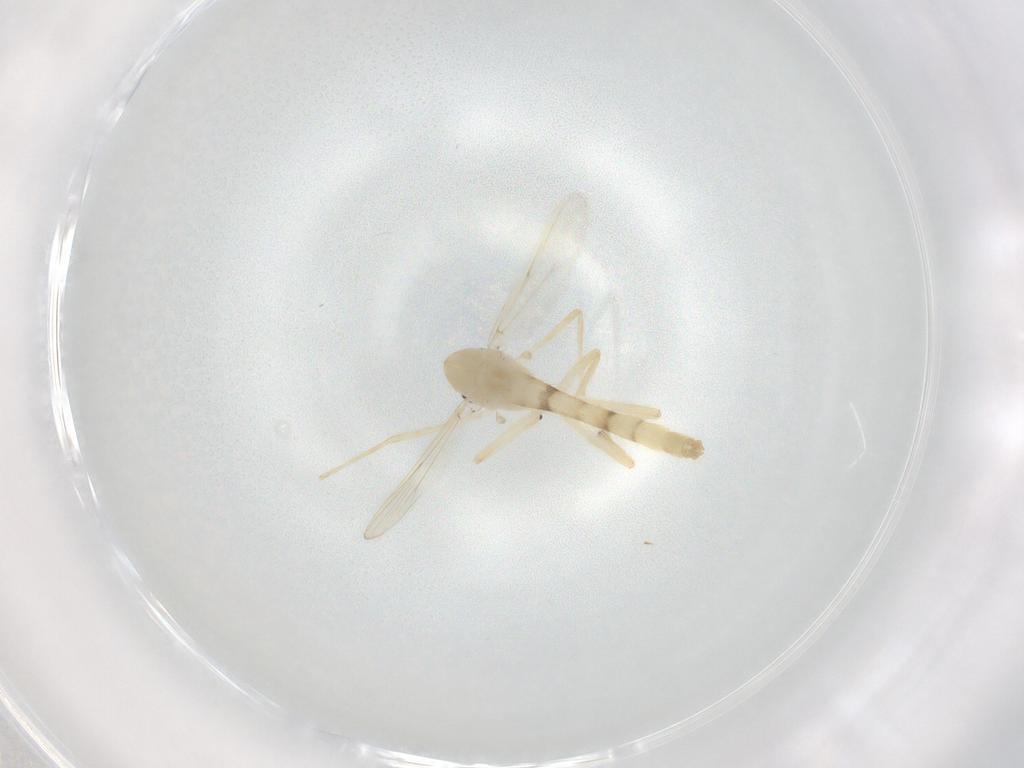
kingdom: Animalia
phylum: Arthropoda
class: Insecta
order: Diptera
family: Chironomidae
